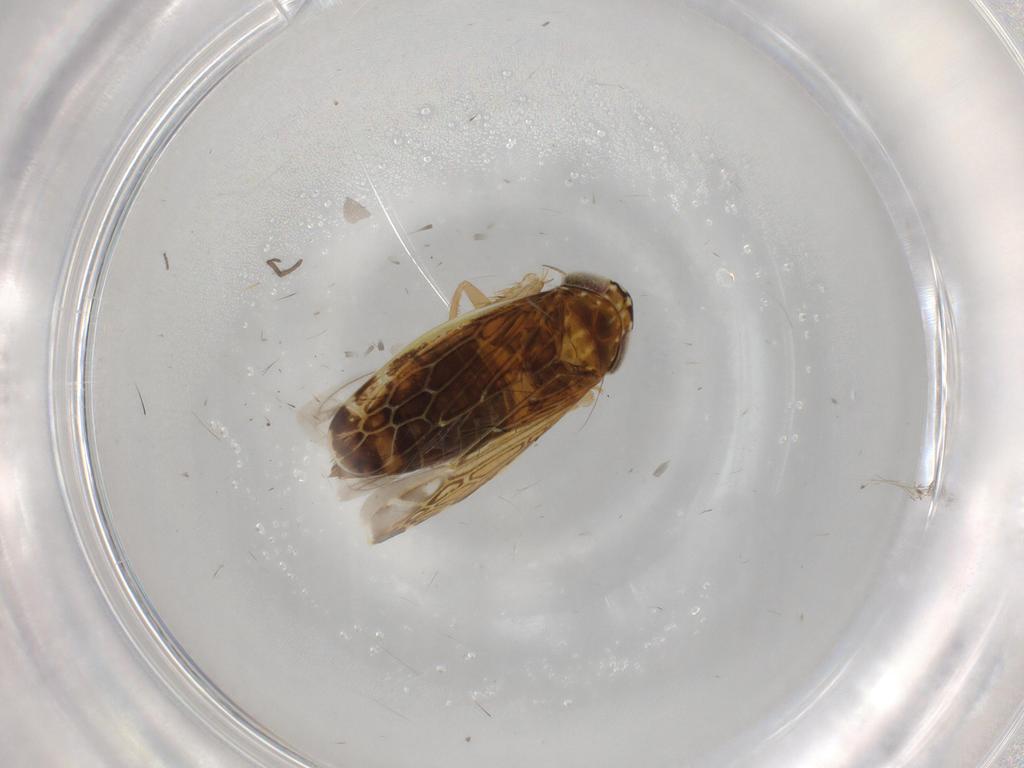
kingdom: Animalia
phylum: Arthropoda
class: Insecta
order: Hemiptera
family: Cicadellidae
